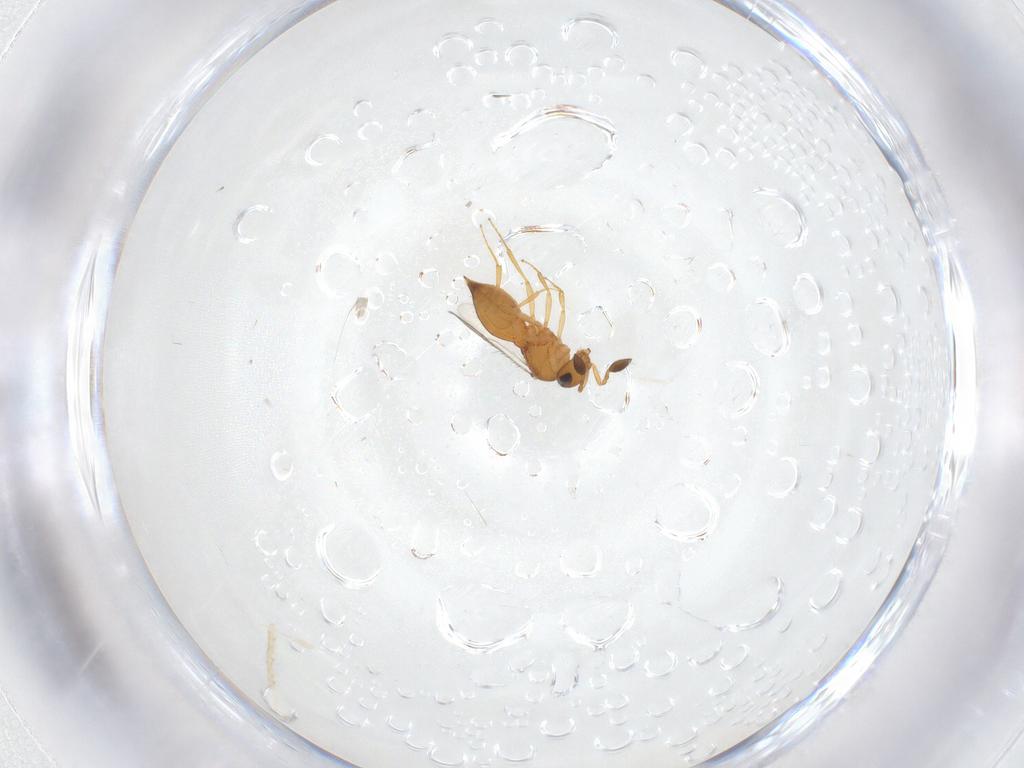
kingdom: Animalia
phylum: Arthropoda
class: Insecta
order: Hymenoptera
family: Scelionidae
